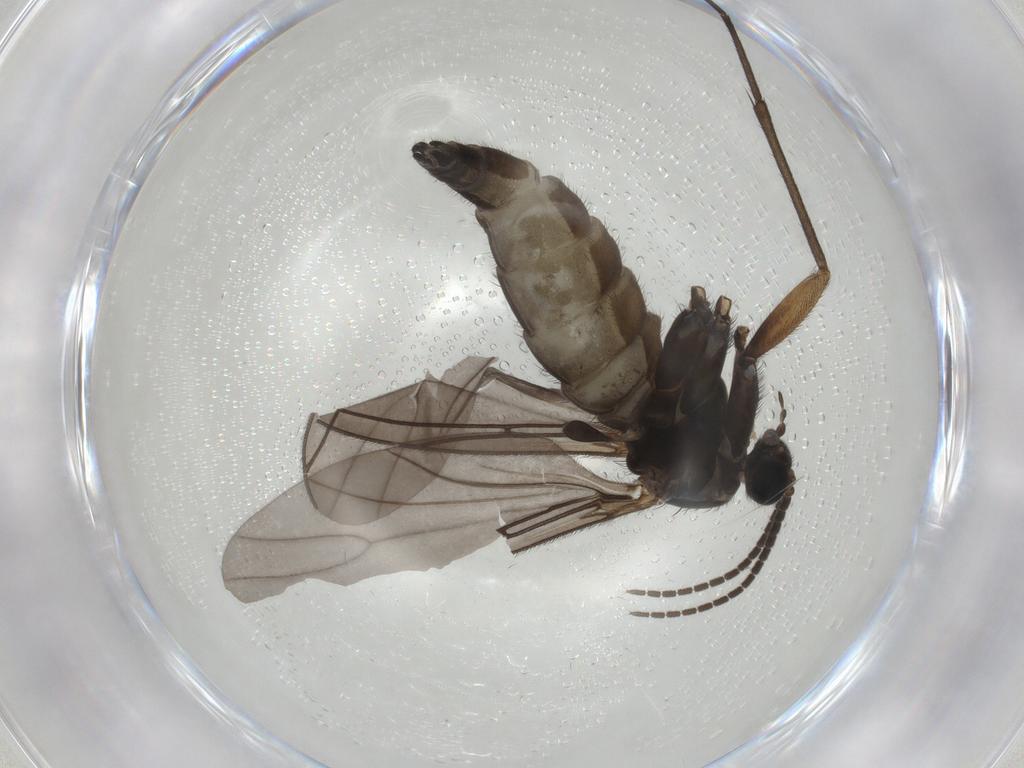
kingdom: Animalia
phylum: Arthropoda
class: Insecta
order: Diptera
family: Sciaridae
